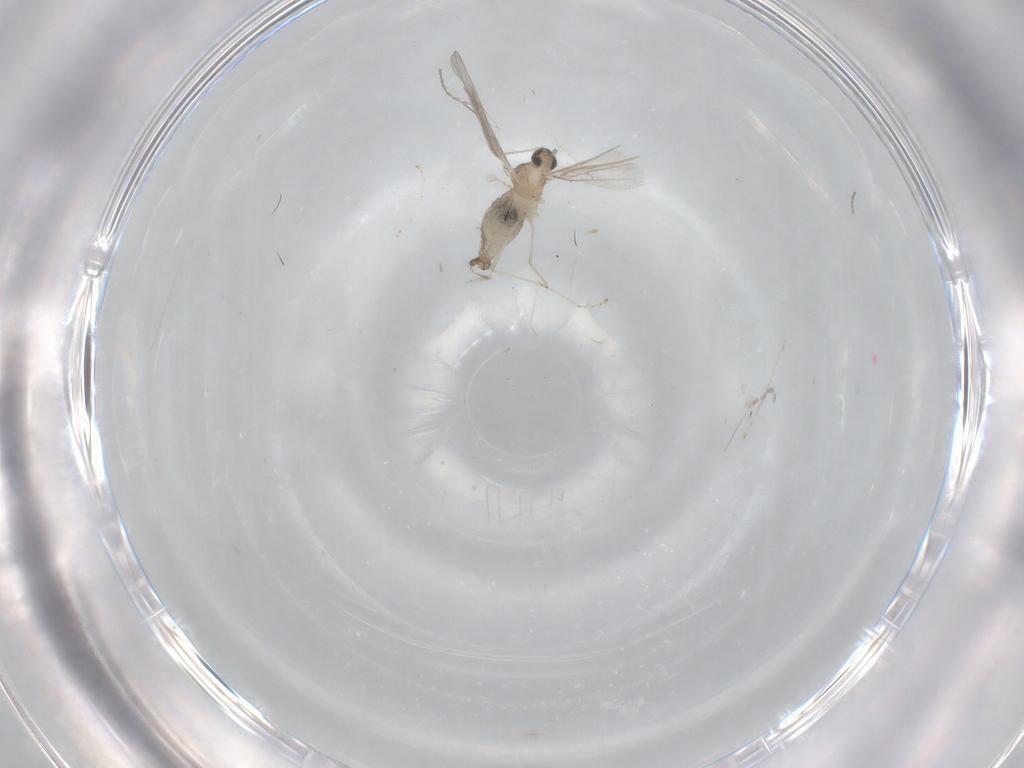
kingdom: Animalia
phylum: Arthropoda
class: Insecta
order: Diptera
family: Cecidomyiidae
